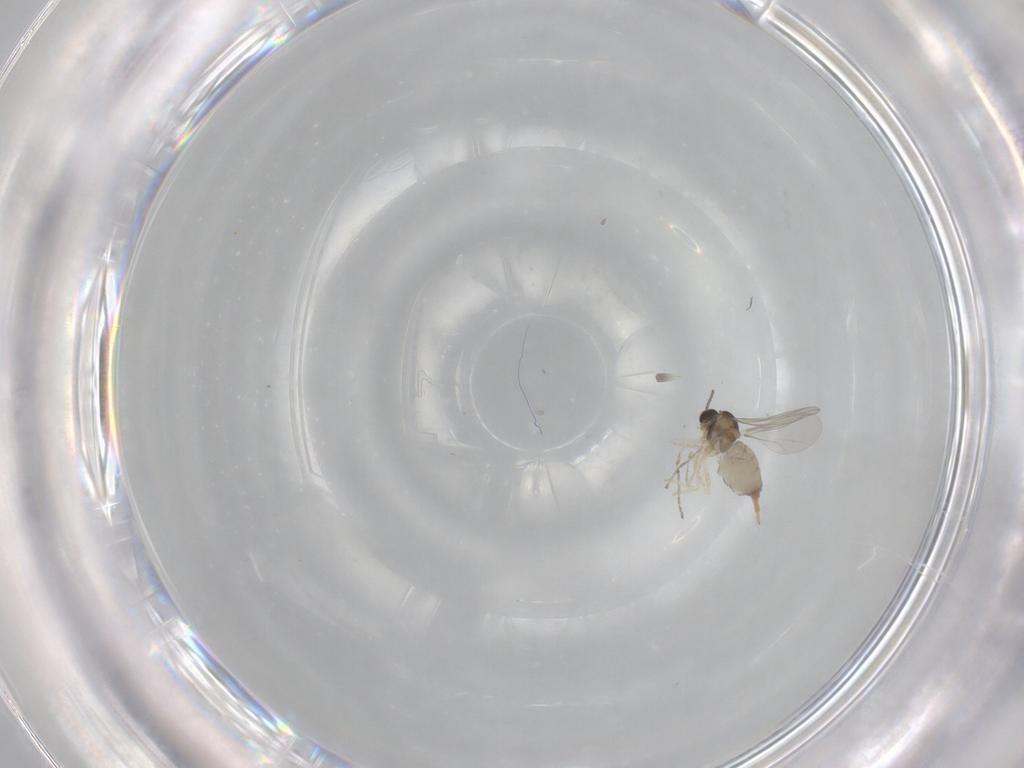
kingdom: Animalia
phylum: Arthropoda
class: Insecta
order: Diptera
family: Cecidomyiidae
